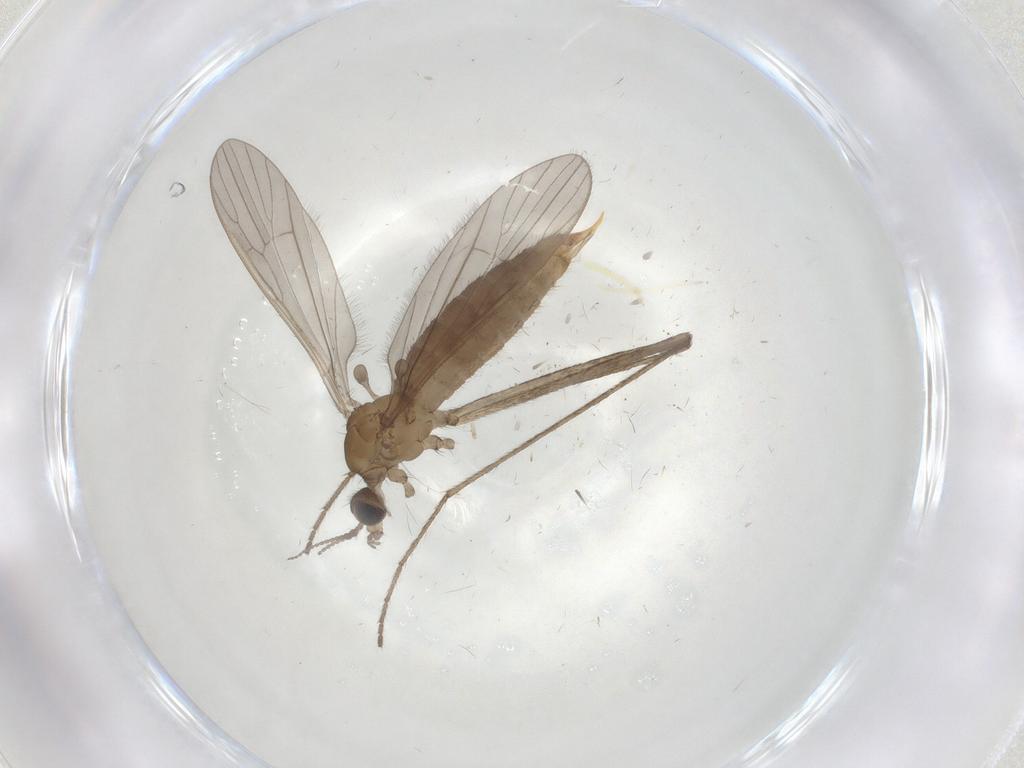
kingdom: Animalia
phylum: Arthropoda
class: Insecta
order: Diptera
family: Limoniidae
